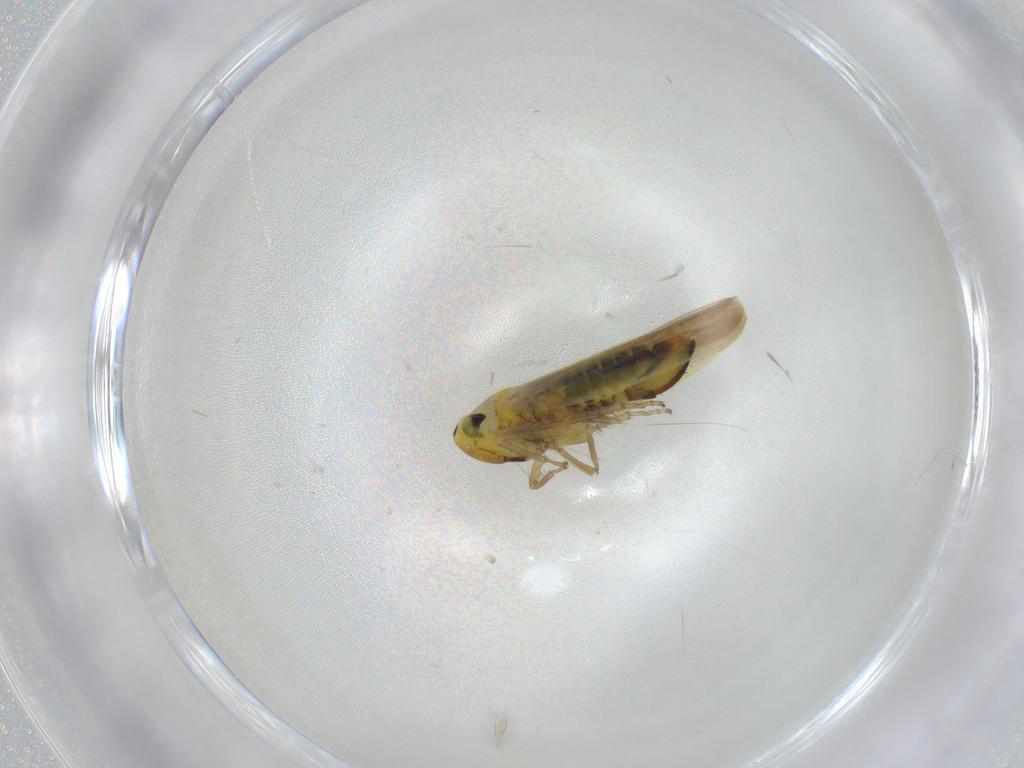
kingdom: Animalia
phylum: Arthropoda
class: Insecta
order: Hemiptera
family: Cicadellidae
